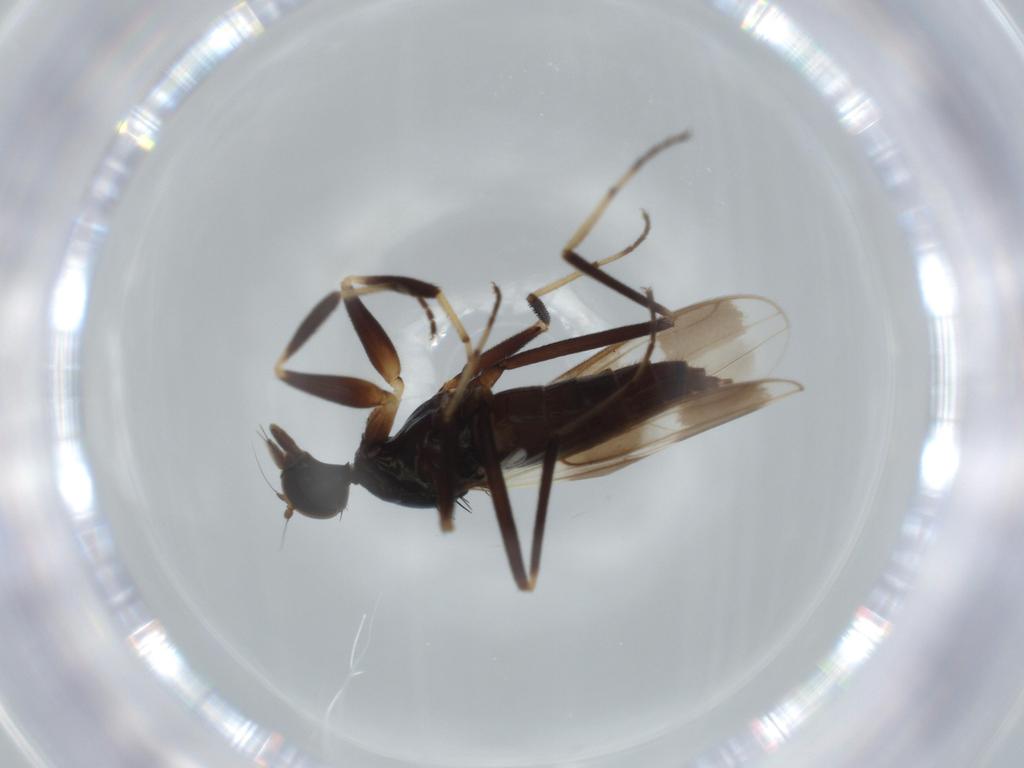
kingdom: Animalia
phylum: Arthropoda
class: Insecta
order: Diptera
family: Hybotidae
